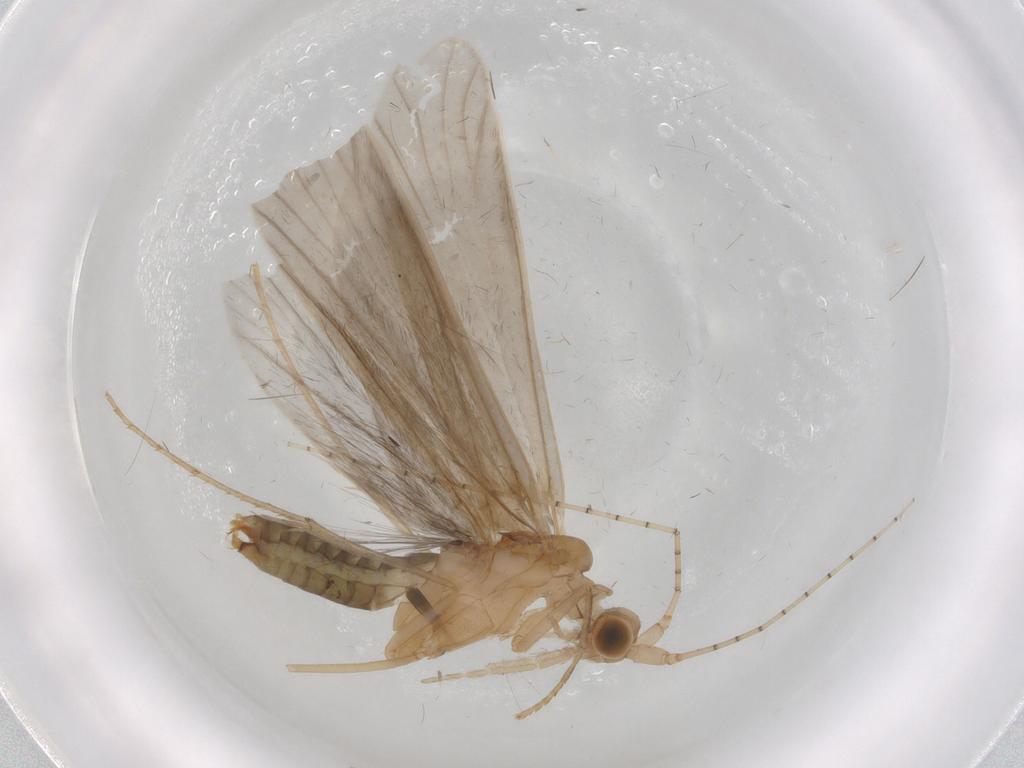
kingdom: Animalia
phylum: Arthropoda
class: Insecta
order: Trichoptera
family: Leptoceridae
